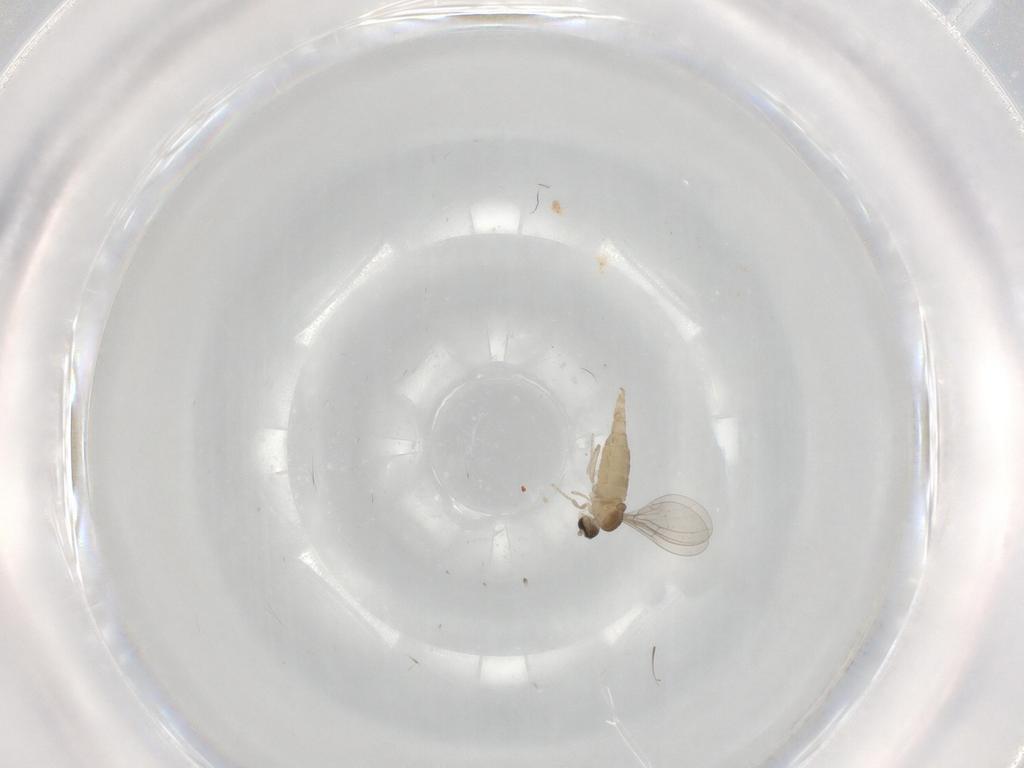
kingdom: Animalia
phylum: Arthropoda
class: Insecta
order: Diptera
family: Cecidomyiidae
